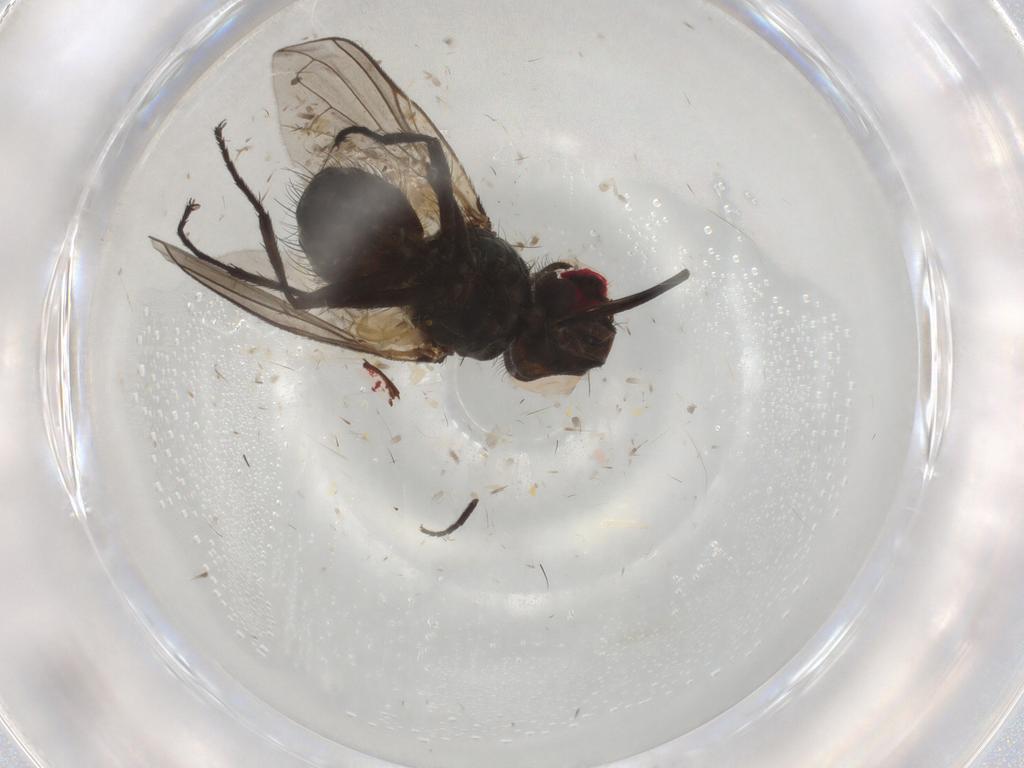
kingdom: Animalia
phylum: Arthropoda
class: Insecta
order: Diptera
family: Tachinidae
